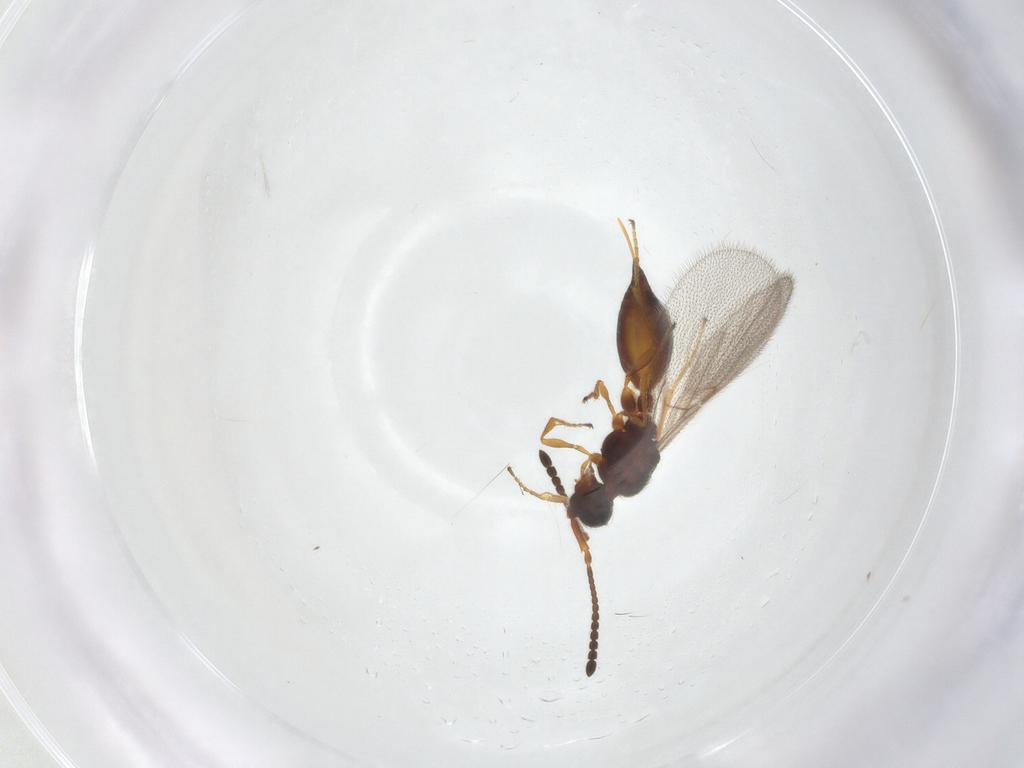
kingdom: Animalia
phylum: Arthropoda
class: Insecta
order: Hymenoptera
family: Diapriidae
